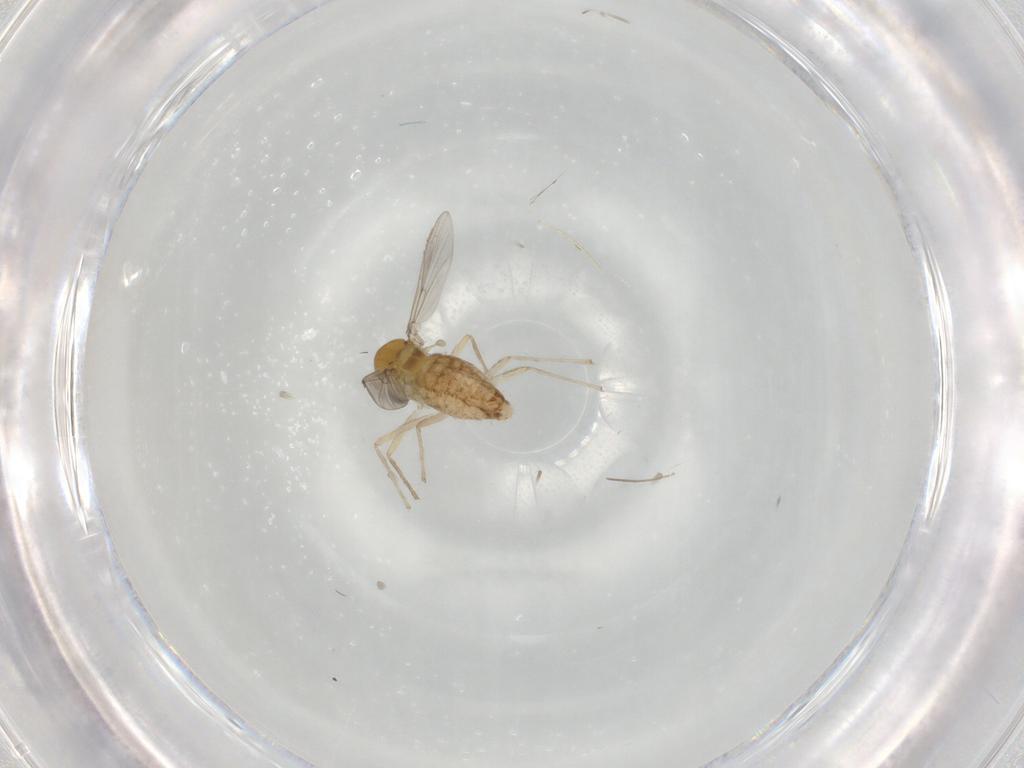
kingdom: Animalia
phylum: Arthropoda
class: Insecta
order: Diptera
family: Chironomidae
